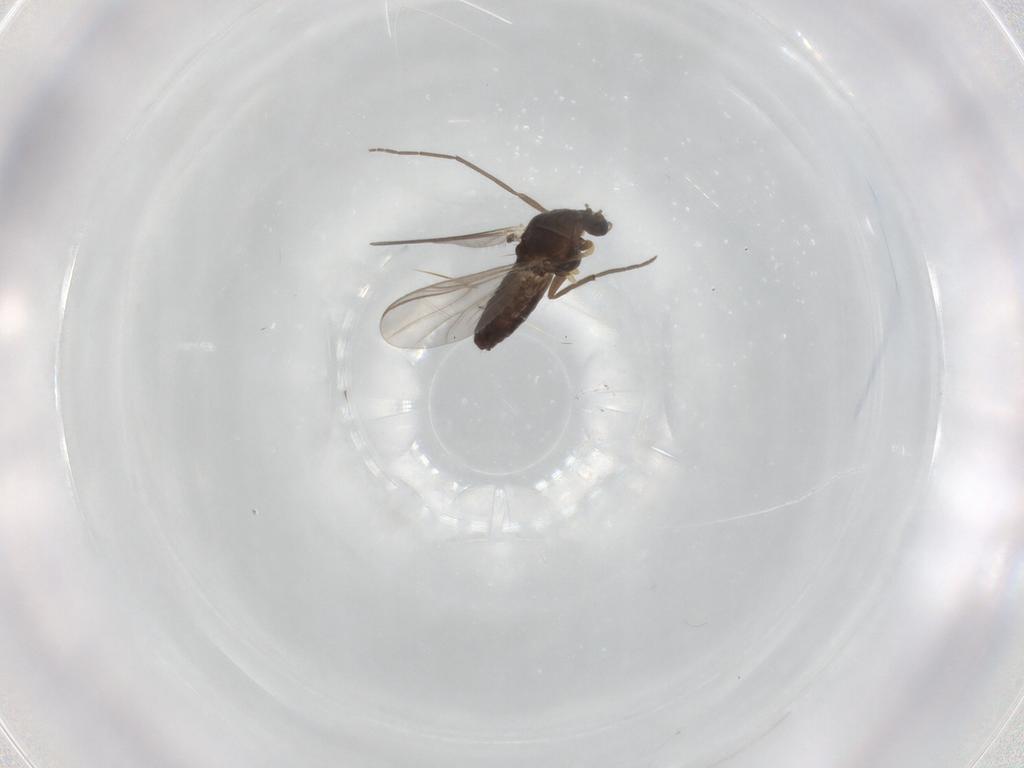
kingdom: Animalia
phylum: Arthropoda
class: Insecta
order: Diptera
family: Chironomidae
